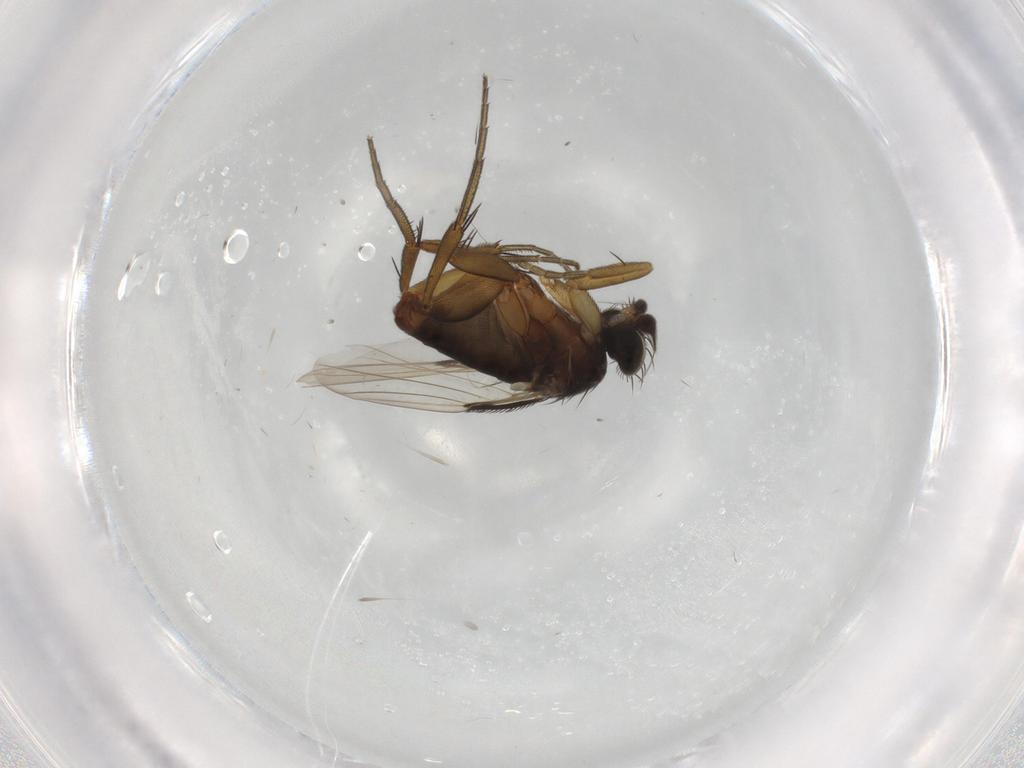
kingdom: Animalia
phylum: Arthropoda
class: Insecta
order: Diptera
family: Phoridae
